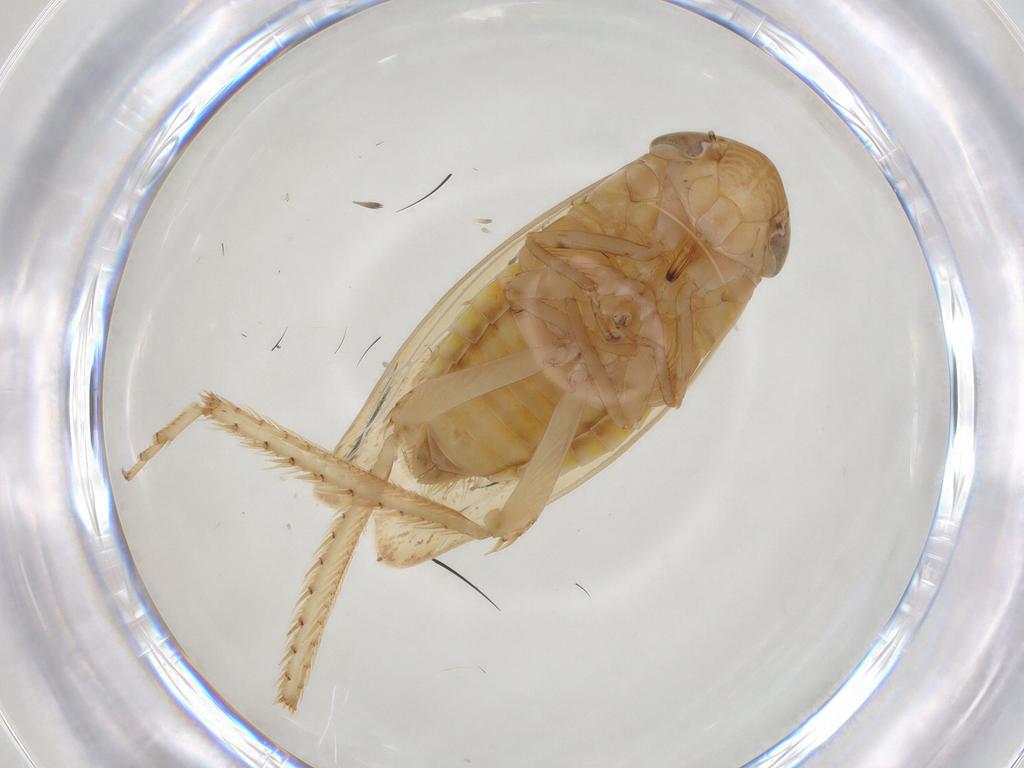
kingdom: Animalia
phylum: Arthropoda
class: Insecta
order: Hemiptera
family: Cicadellidae
